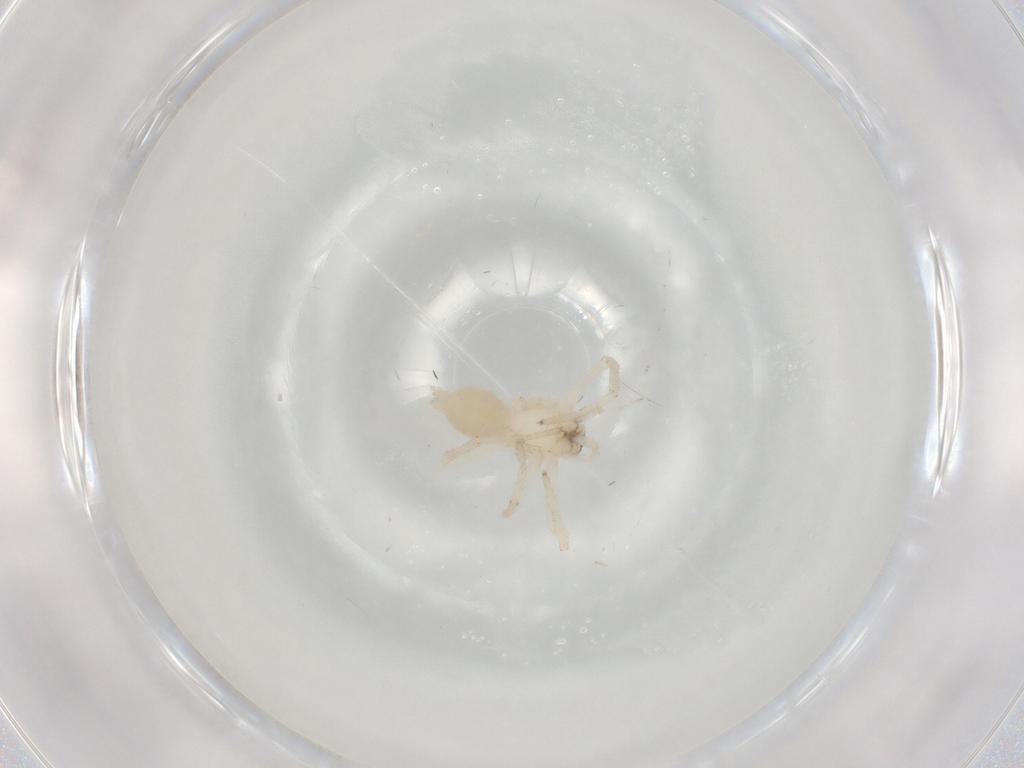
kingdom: Animalia
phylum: Arthropoda
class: Arachnida
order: Araneae
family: Anyphaenidae
